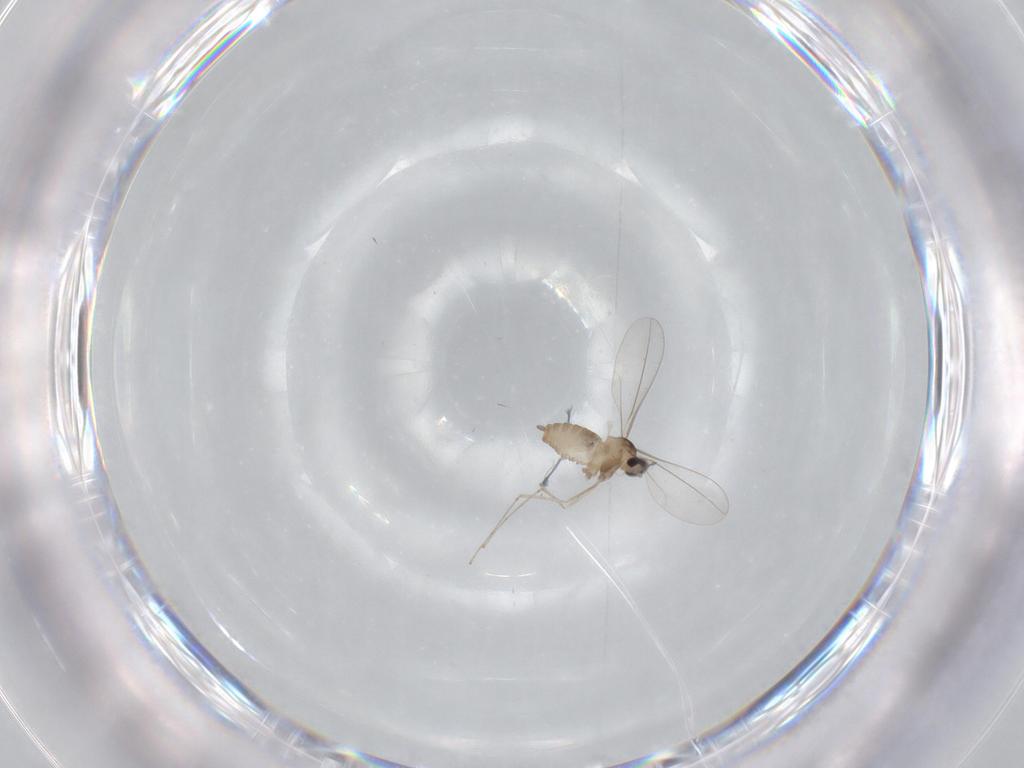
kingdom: Animalia
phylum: Arthropoda
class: Insecta
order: Diptera
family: Cecidomyiidae
